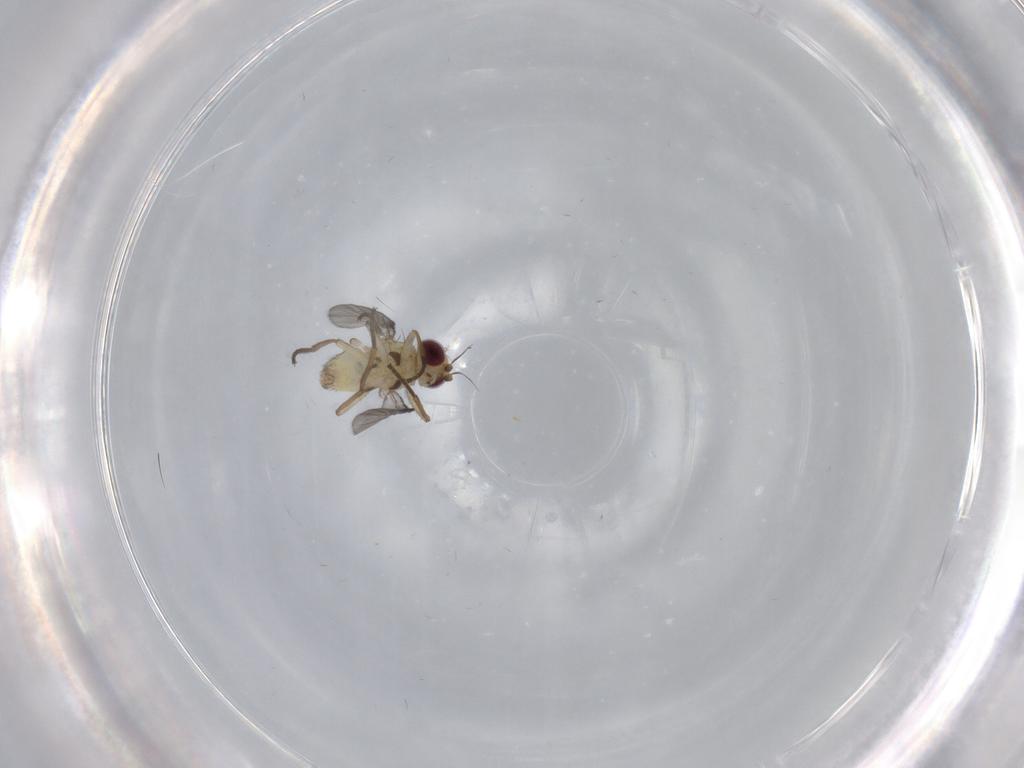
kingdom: Animalia
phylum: Arthropoda
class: Insecta
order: Diptera
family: Agromyzidae
